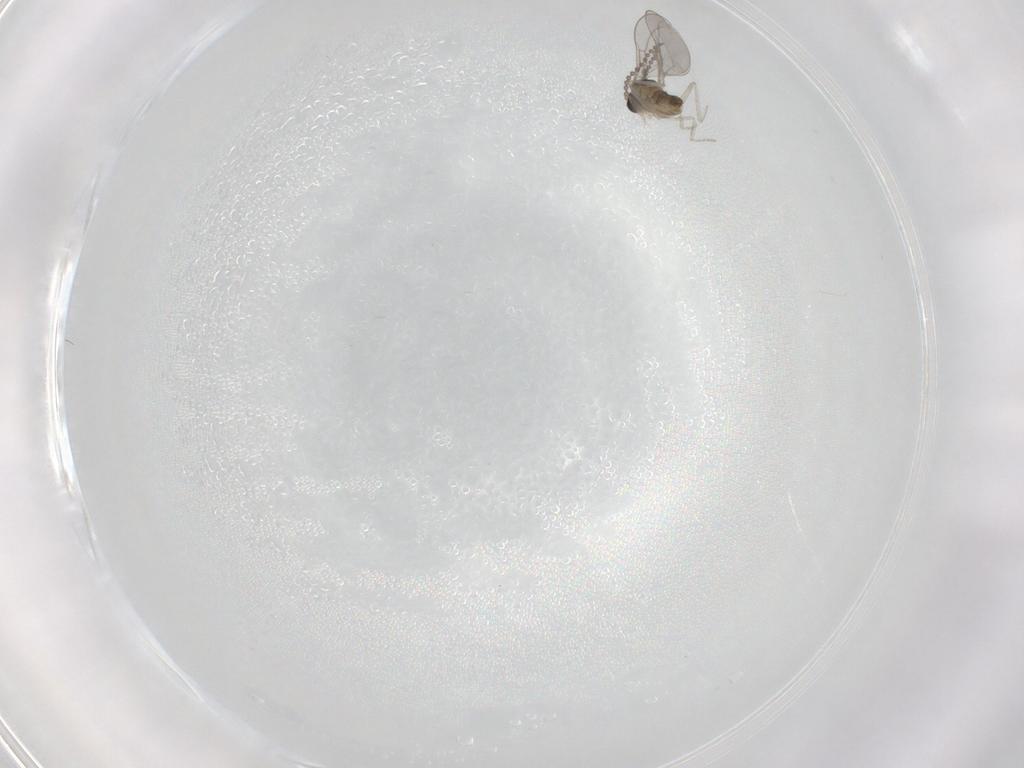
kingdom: Animalia
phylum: Arthropoda
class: Insecta
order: Diptera
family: Cecidomyiidae
